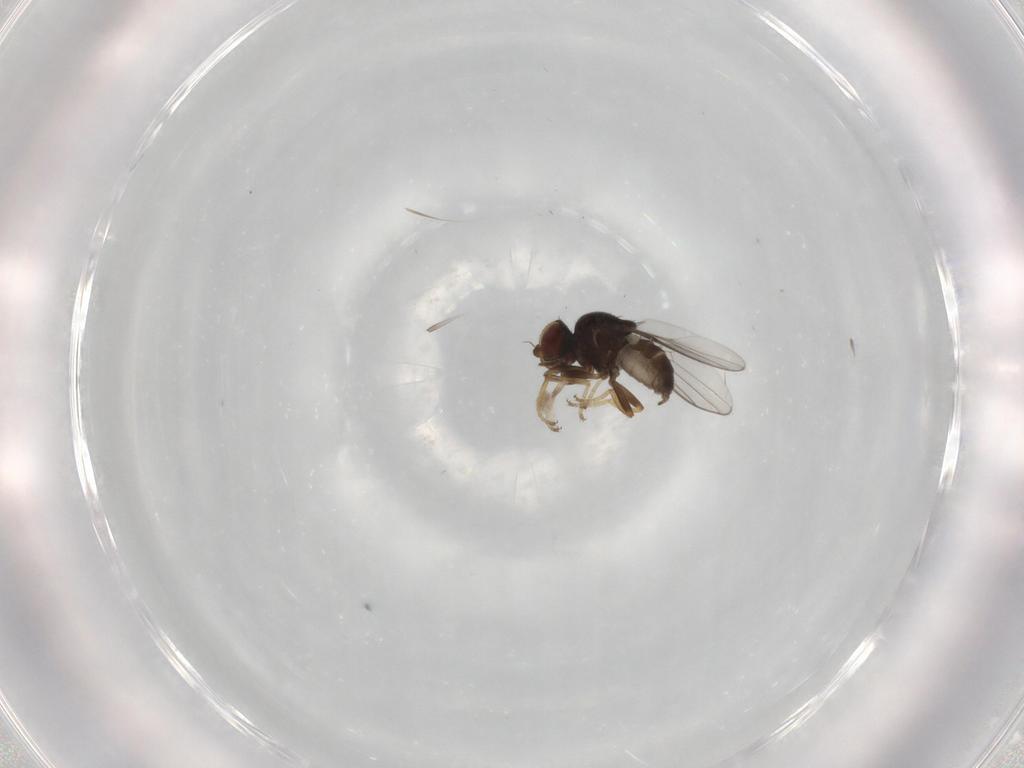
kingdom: Animalia
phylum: Arthropoda
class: Insecta
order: Diptera
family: Chloropidae
